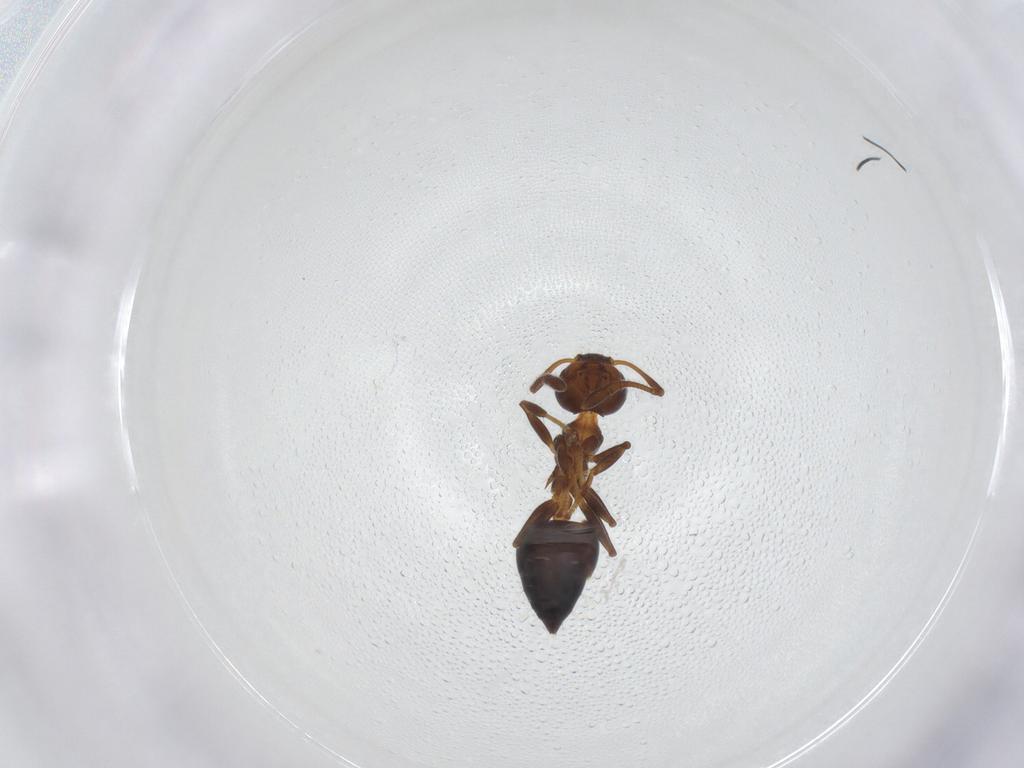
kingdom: Animalia
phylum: Arthropoda
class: Insecta
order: Hymenoptera
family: Formicidae
